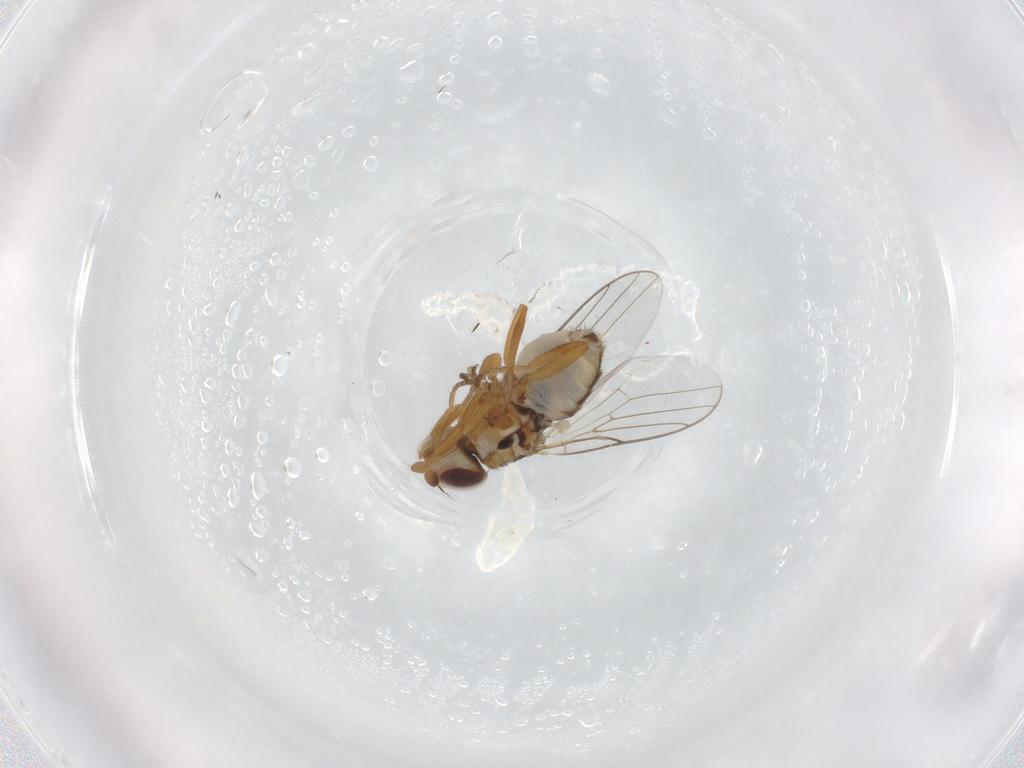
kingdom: Animalia
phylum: Arthropoda
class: Insecta
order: Diptera
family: Chloropidae
